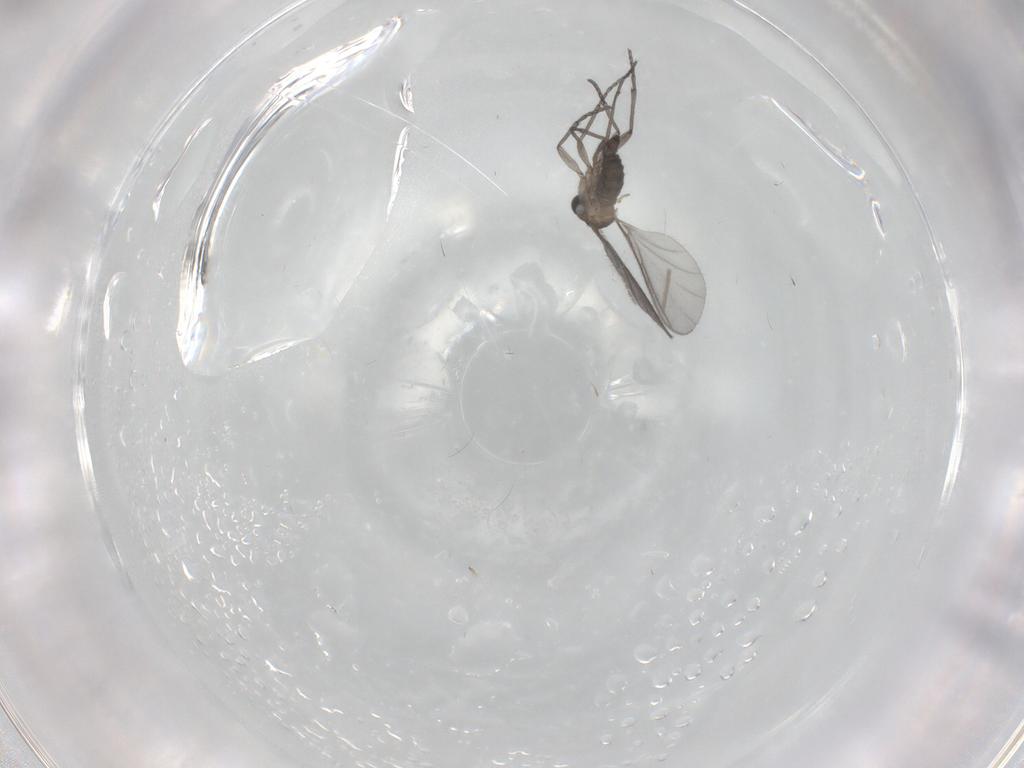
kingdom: Animalia
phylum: Arthropoda
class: Insecta
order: Diptera
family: Sciaridae
